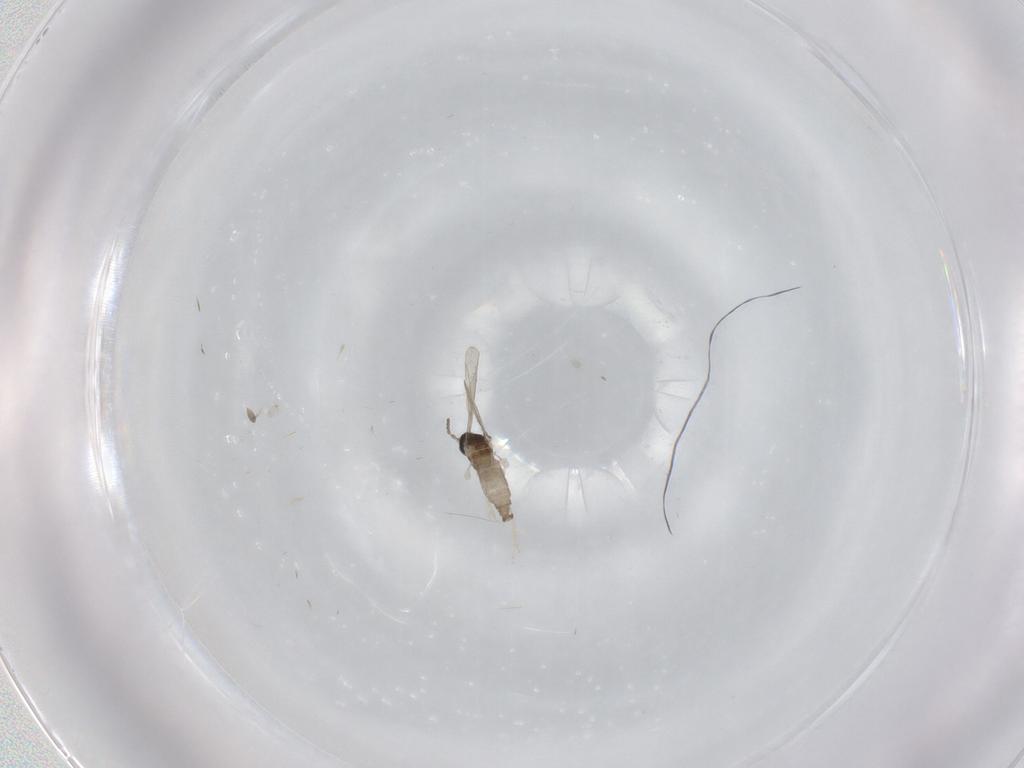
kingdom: Animalia
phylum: Arthropoda
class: Insecta
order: Diptera
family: Cecidomyiidae
